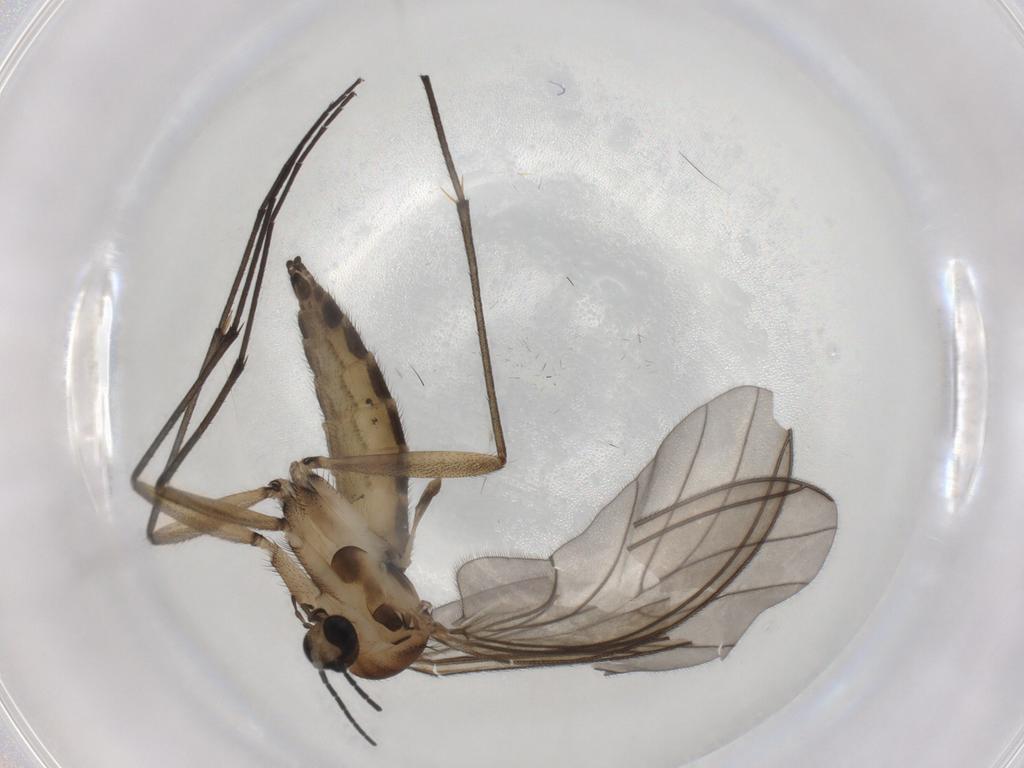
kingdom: Animalia
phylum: Arthropoda
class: Insecta
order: Diptera
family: Sciaridae
